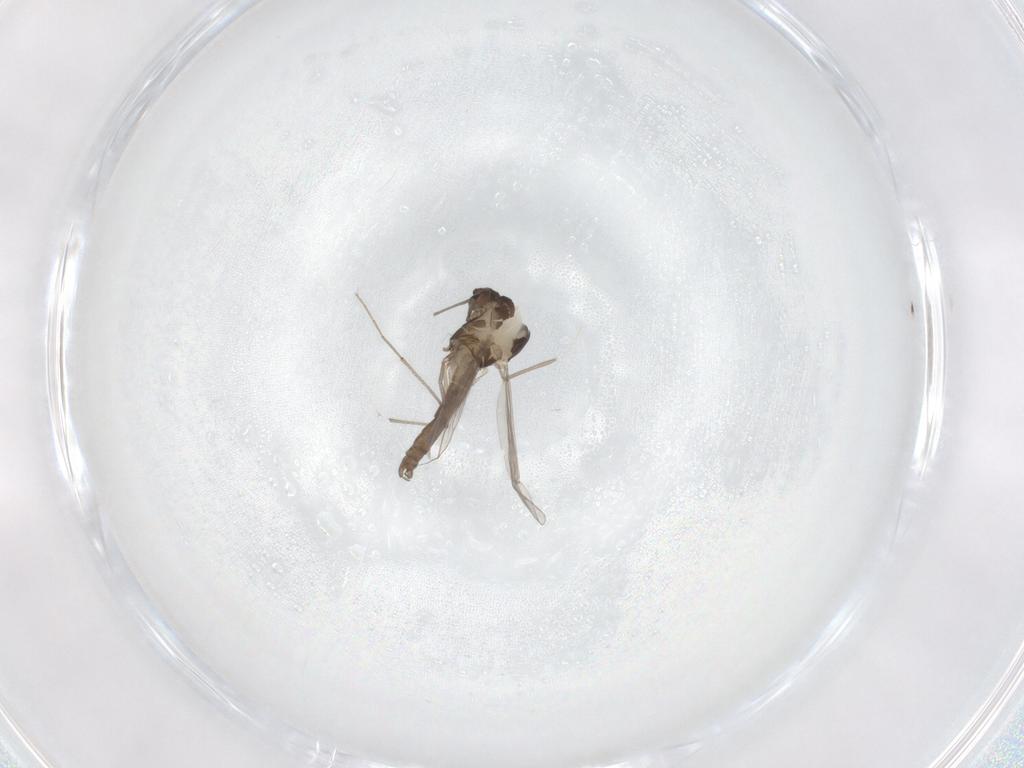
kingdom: Animalia
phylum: Arthropoda
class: Insecta
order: Diptera
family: Chironomidae
